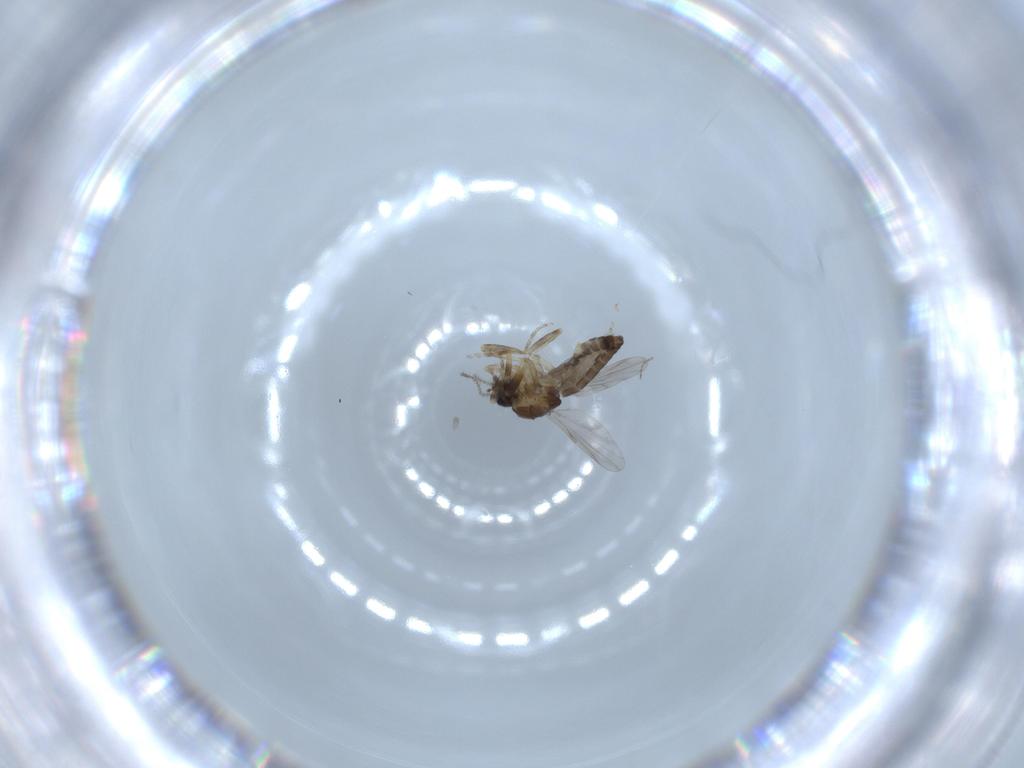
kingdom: Animalia
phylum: Arthropoda
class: Insecta
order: Diptera
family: Ceratopogonidae
